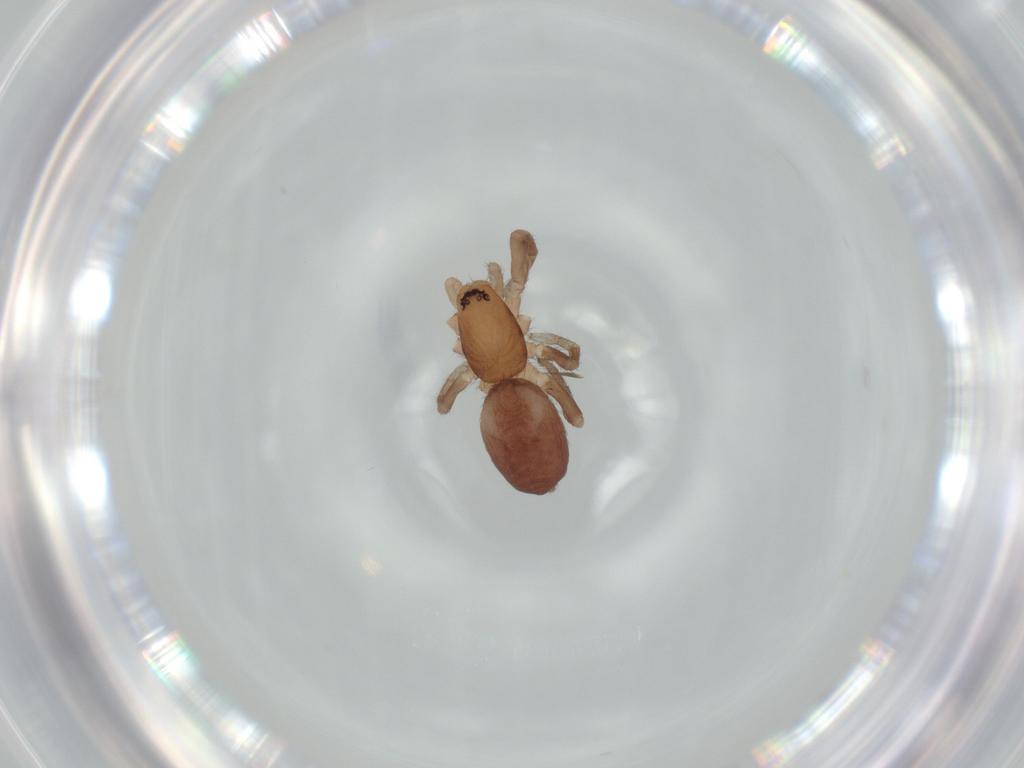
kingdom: Animalia
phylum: Arthropoda
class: Arachnida
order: Araneae
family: Gnaphosidae
